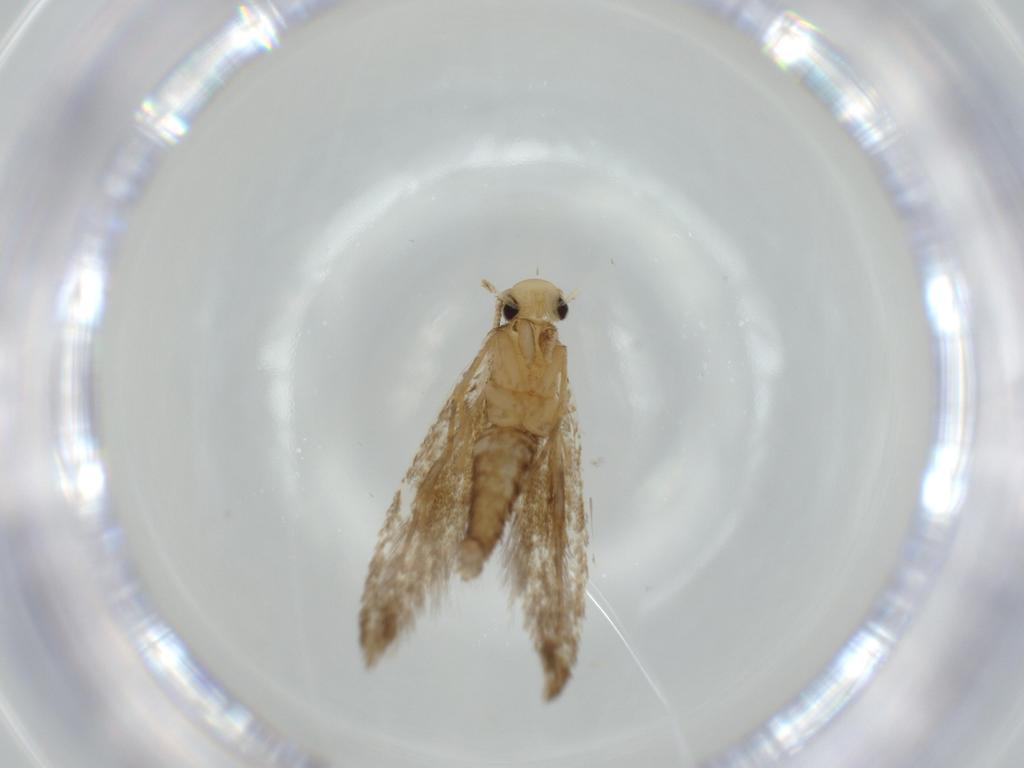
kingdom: Animalia
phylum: Arthropoda
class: Insecta
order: Lepidoptera
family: Tineidae
